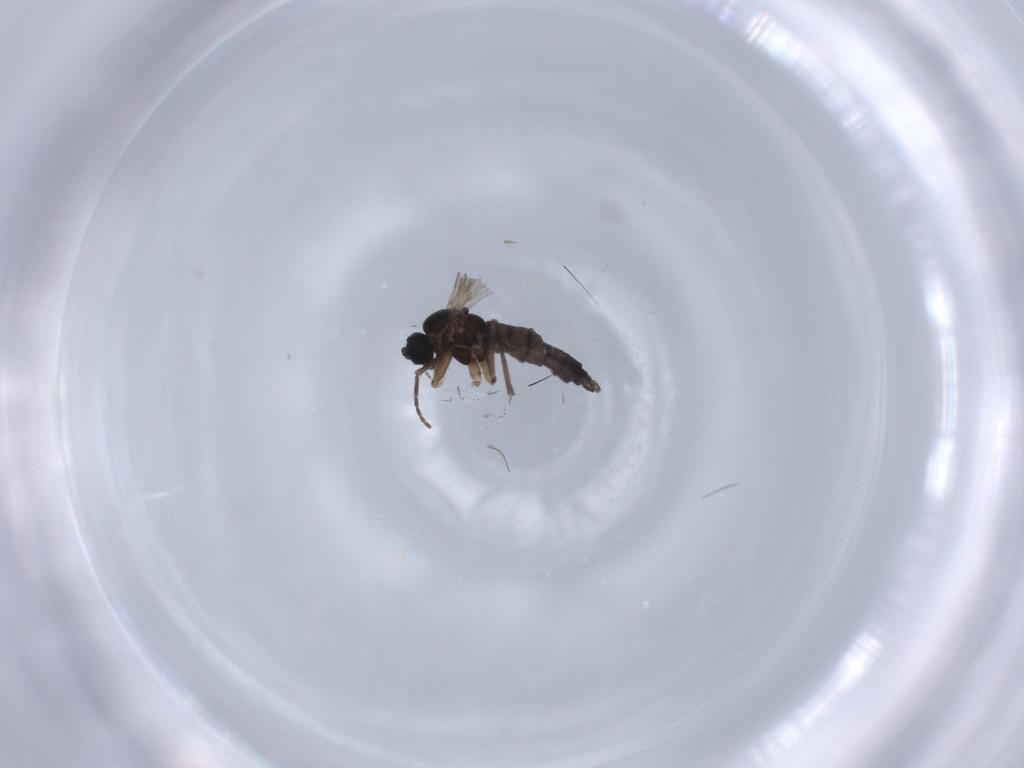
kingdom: Animalia
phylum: Arthropoda
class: Insecta
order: Diptera
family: Sciaridae
